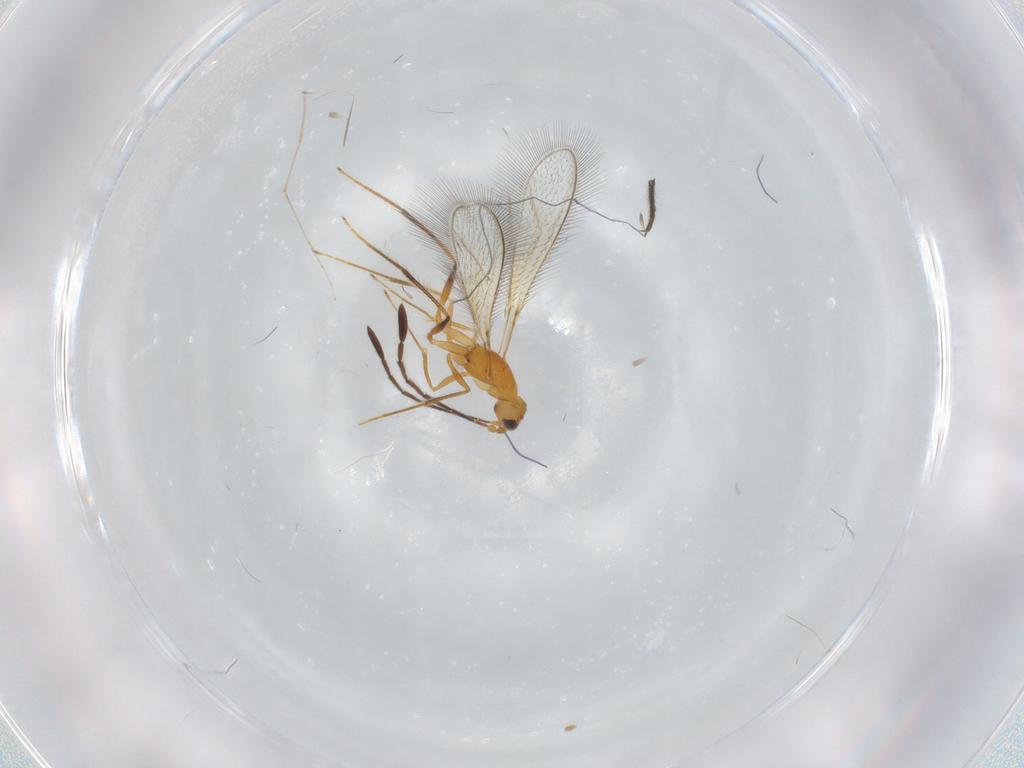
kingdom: Animalia
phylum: Arthropoda
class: Insecta
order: Hymenoptera
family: Mymaridae
